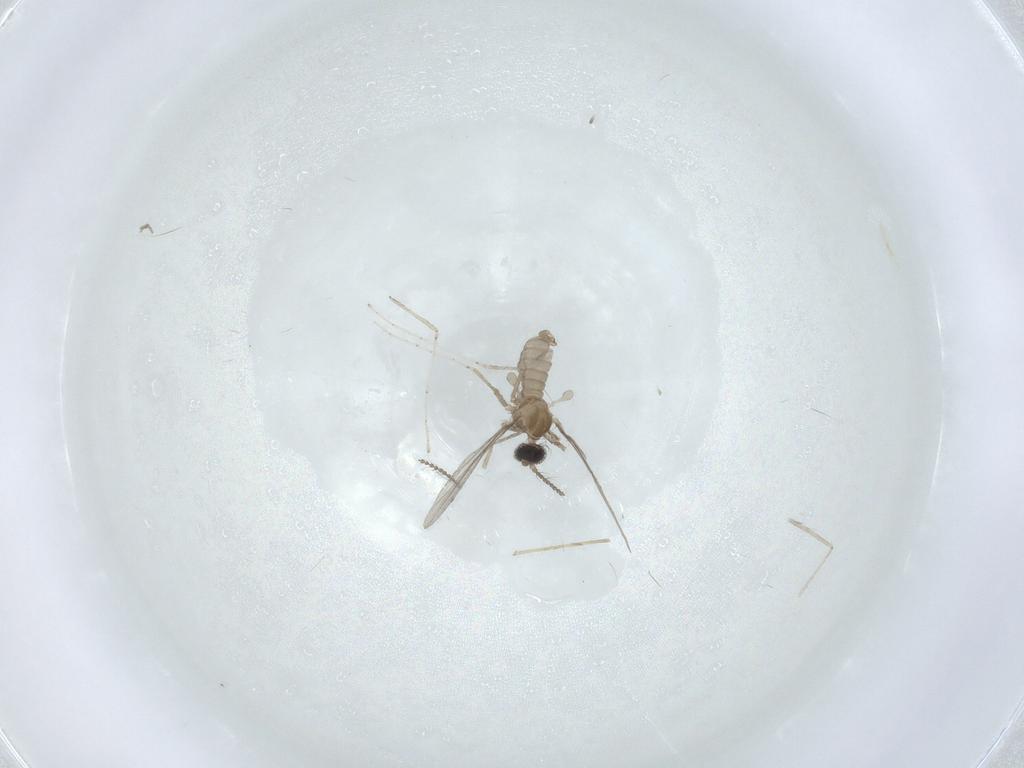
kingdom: Animalia
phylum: Arthropoda
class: Insecta
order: Diptera
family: Cecidomyiidae
